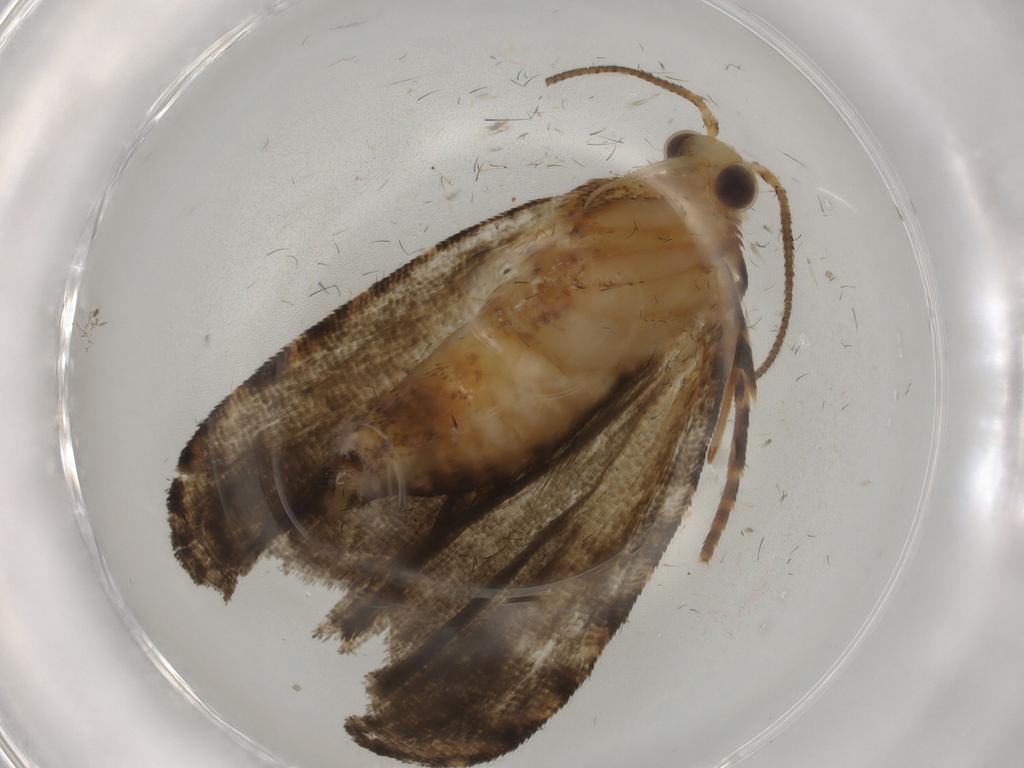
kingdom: Animalia
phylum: Arthropoda
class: Insecta
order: Lepidoptera
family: Tortricidae
